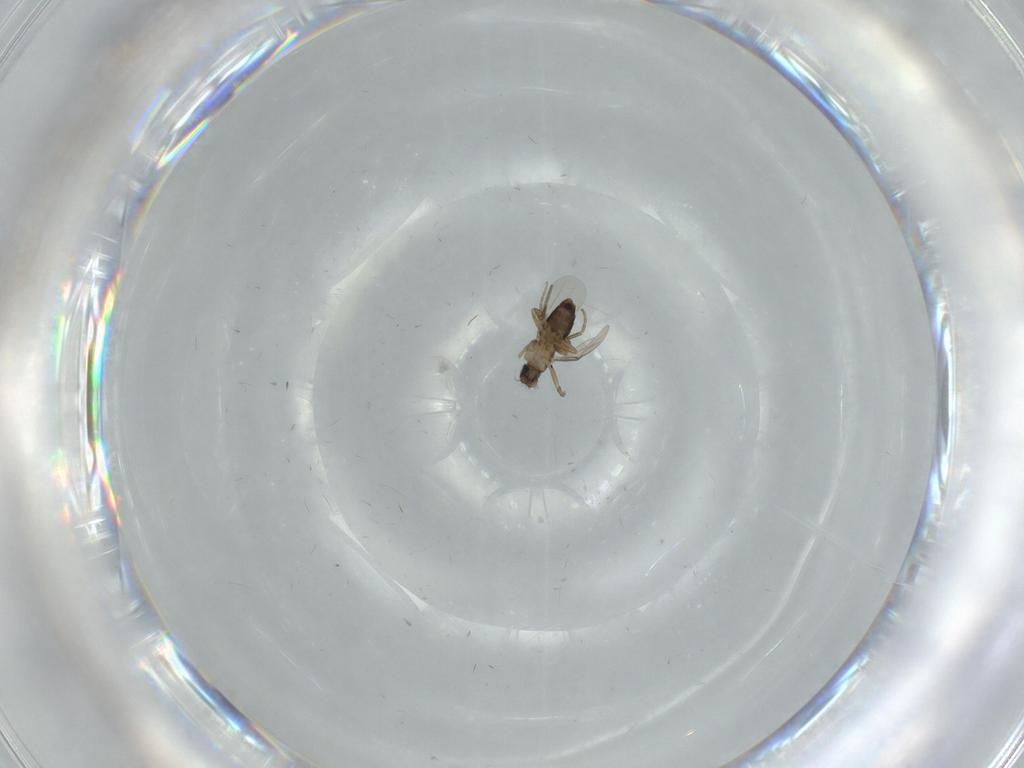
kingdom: Animalia
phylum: Arthropoda
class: Insecta
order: Diptera
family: Phoridae
